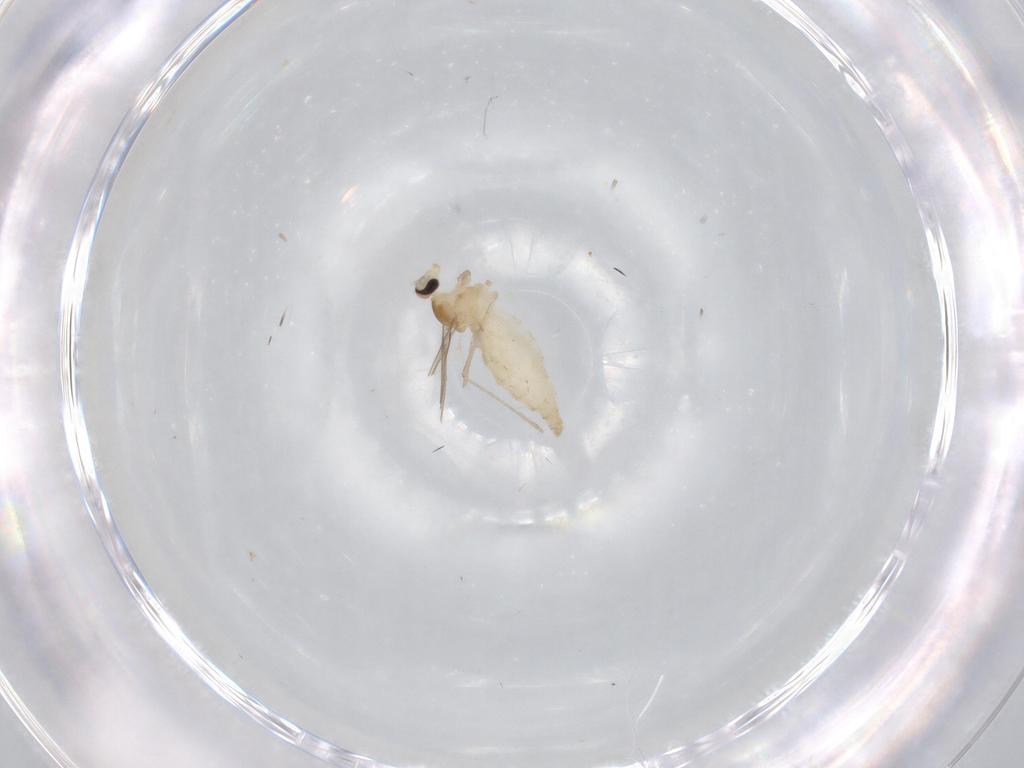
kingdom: Animalia
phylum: Arthropoda
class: Insecta
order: Diptera
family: Cecidomyiidae
